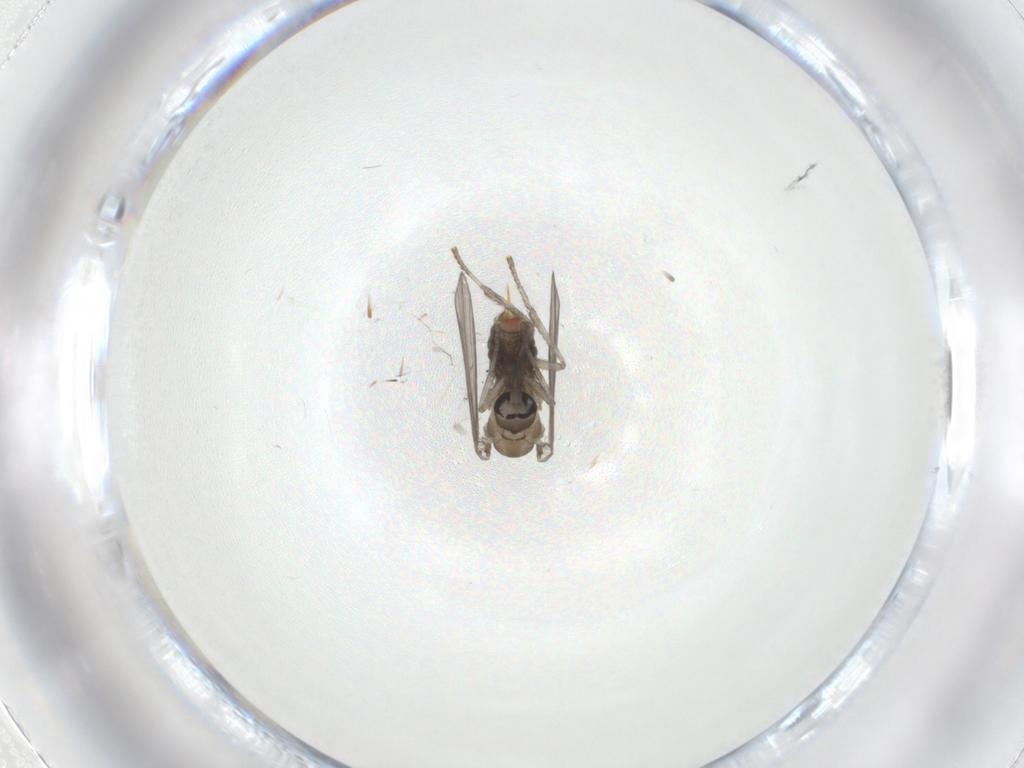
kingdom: Animalia
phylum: Arthropoda
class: Insecta
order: Diptera
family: Psychodidae
